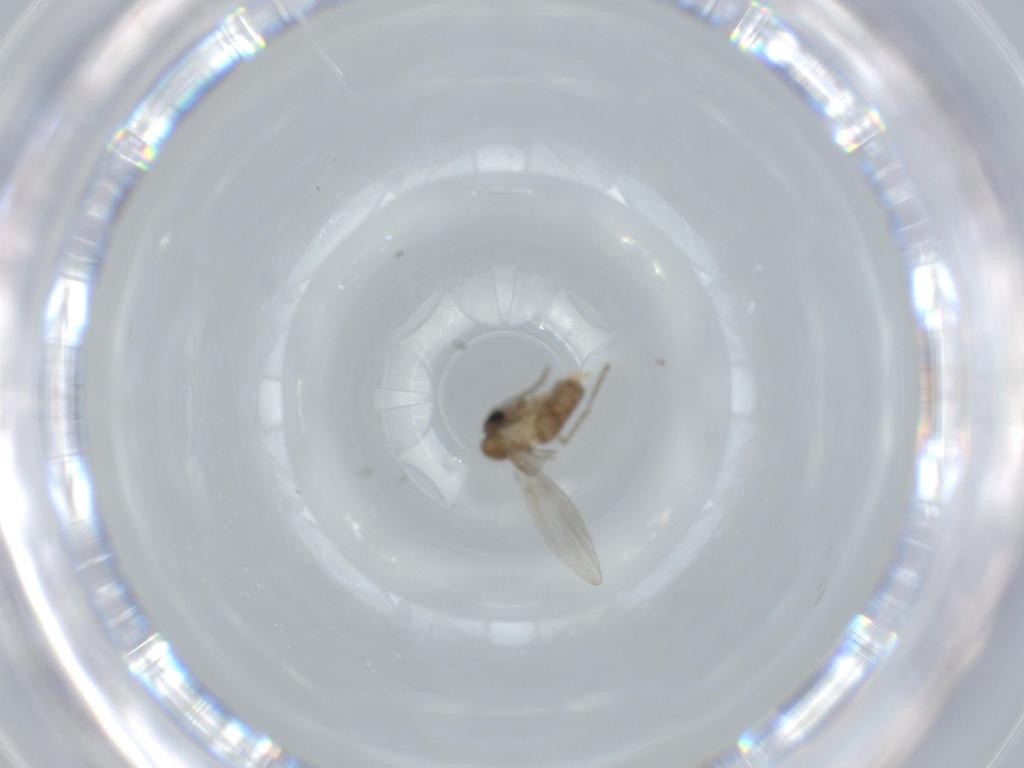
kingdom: Animalia
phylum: Arthropoda
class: Insecta
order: Diptera
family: Psychodidae
